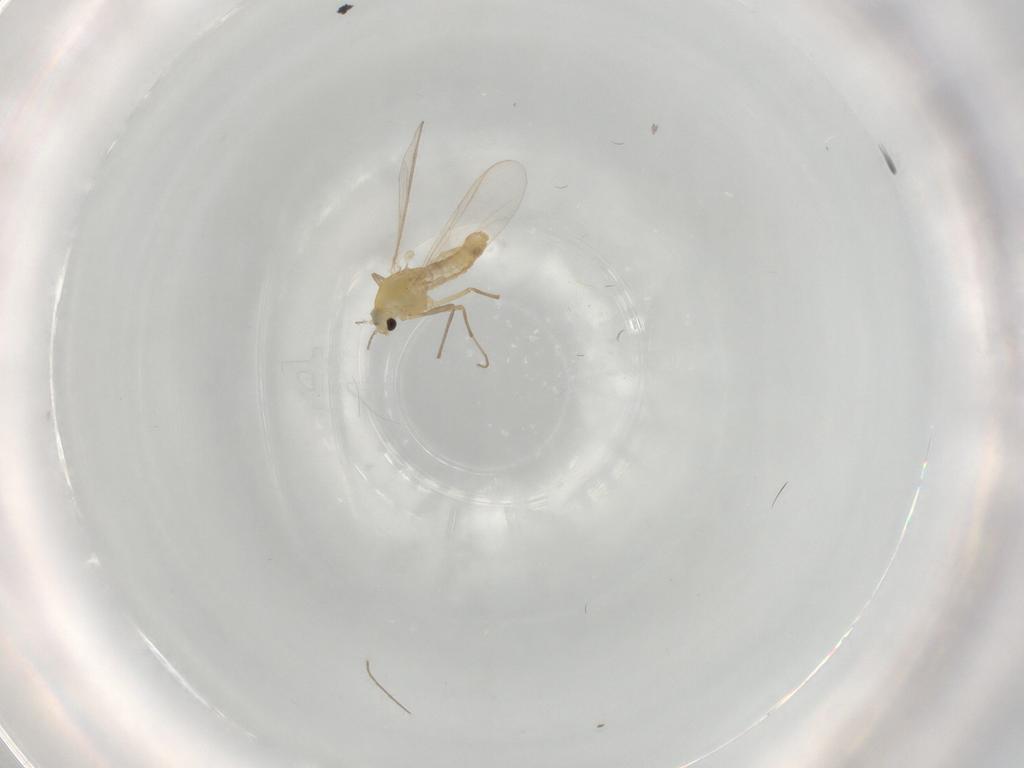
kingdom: Animalia
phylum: Arthropoda
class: Insecta
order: Diptera
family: Chironomidae
